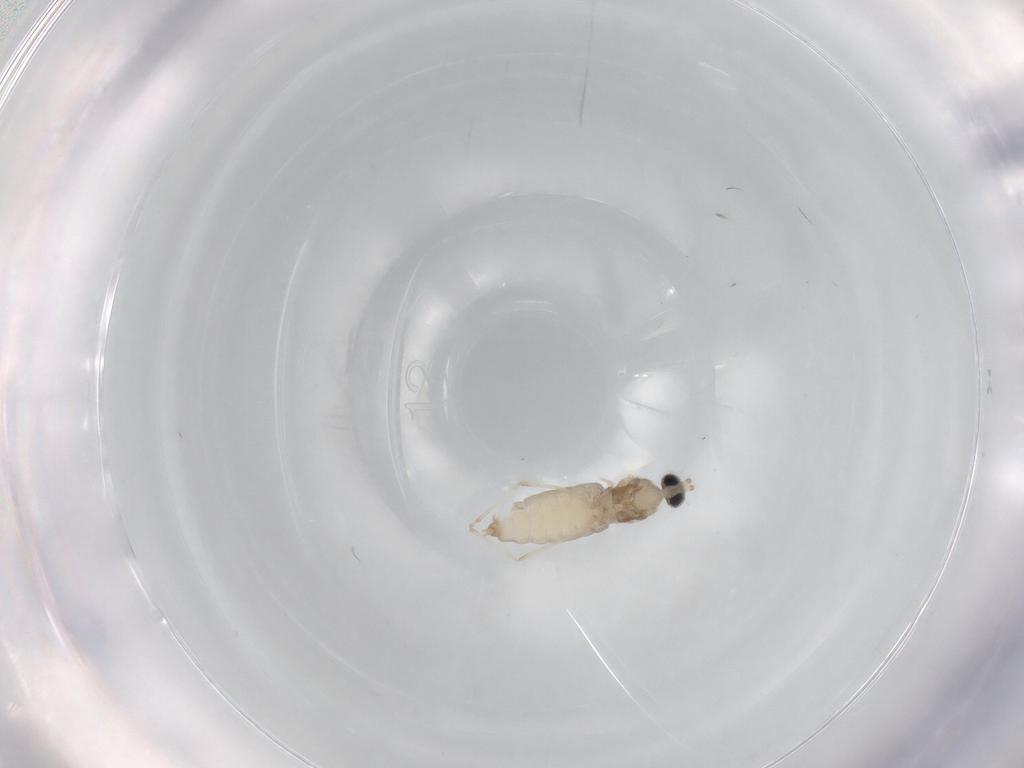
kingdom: Animalia
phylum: Arthropoda
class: Insecta
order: Diptera
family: Cecidomyiidae
